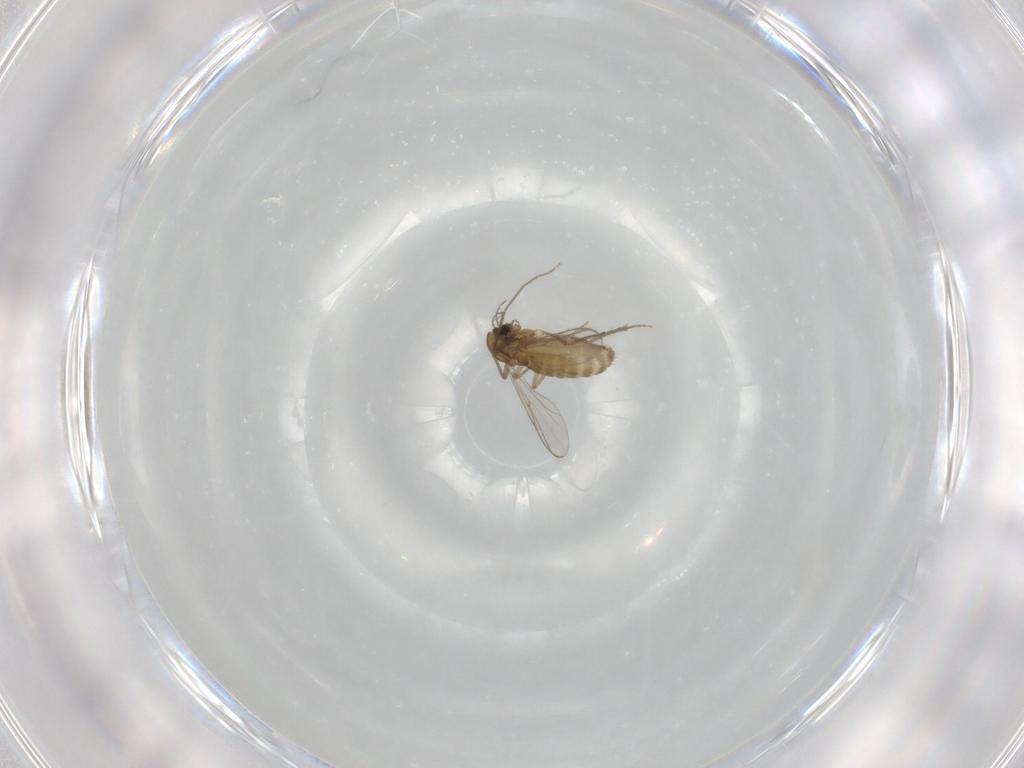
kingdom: Animalia
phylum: Arthropoda
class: Insecta
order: Diptera
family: Chironomidae
